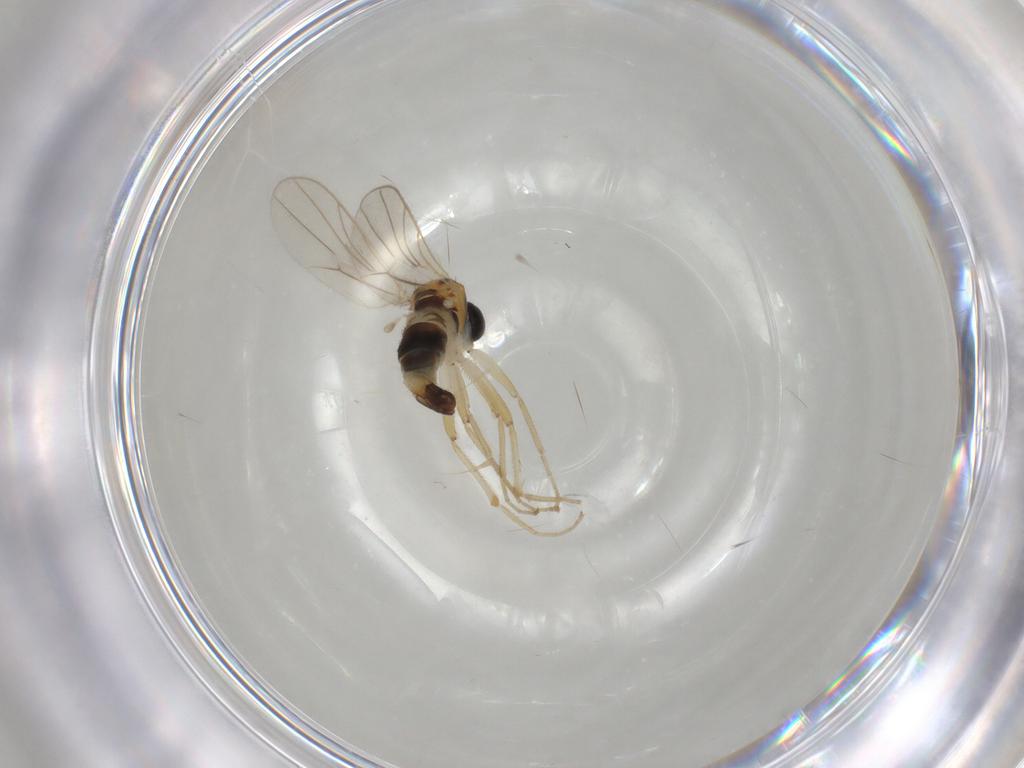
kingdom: Animalia
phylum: Arthropoda
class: Insecta
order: Diptera
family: Hybotidae
